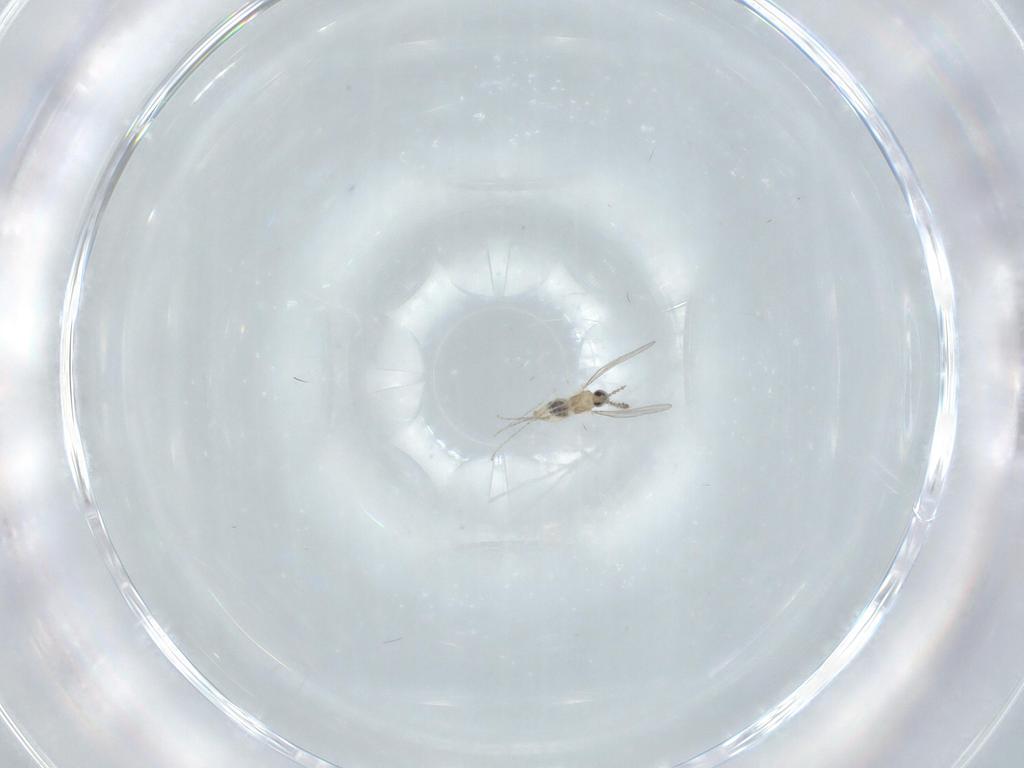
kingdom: Animalia
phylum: Arthropoda
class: Insecta
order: Diptera
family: Cecidomyiidae
